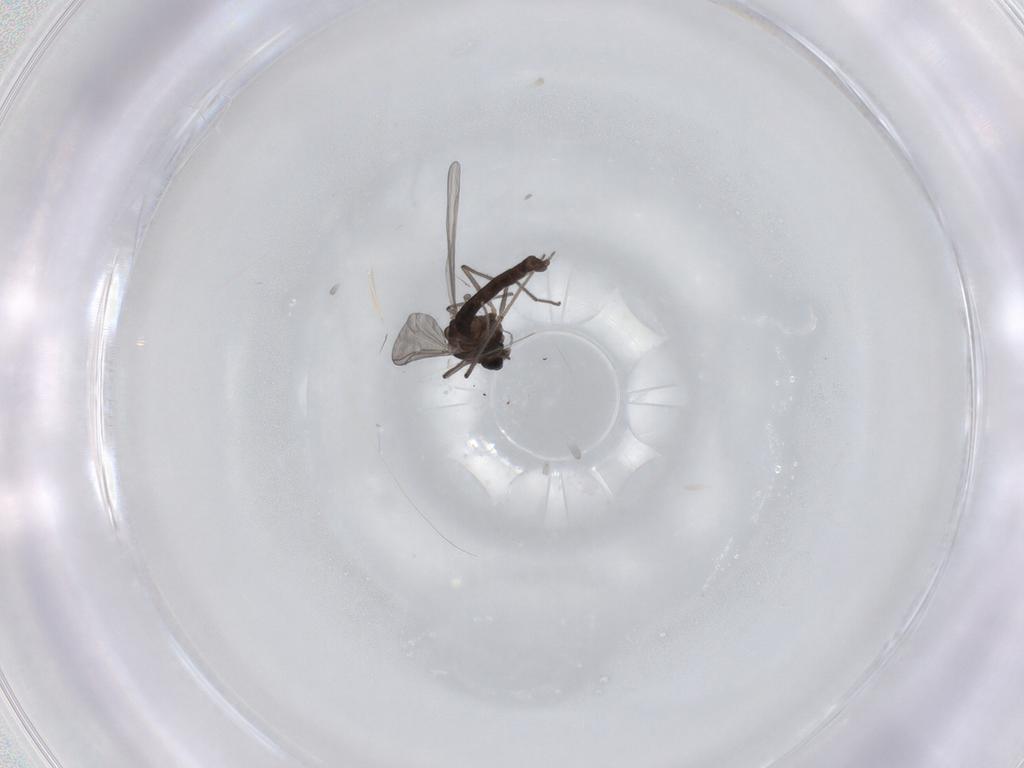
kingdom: Animalia
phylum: Arthropoda
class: Insecta
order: Diptera
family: Chironomidae
